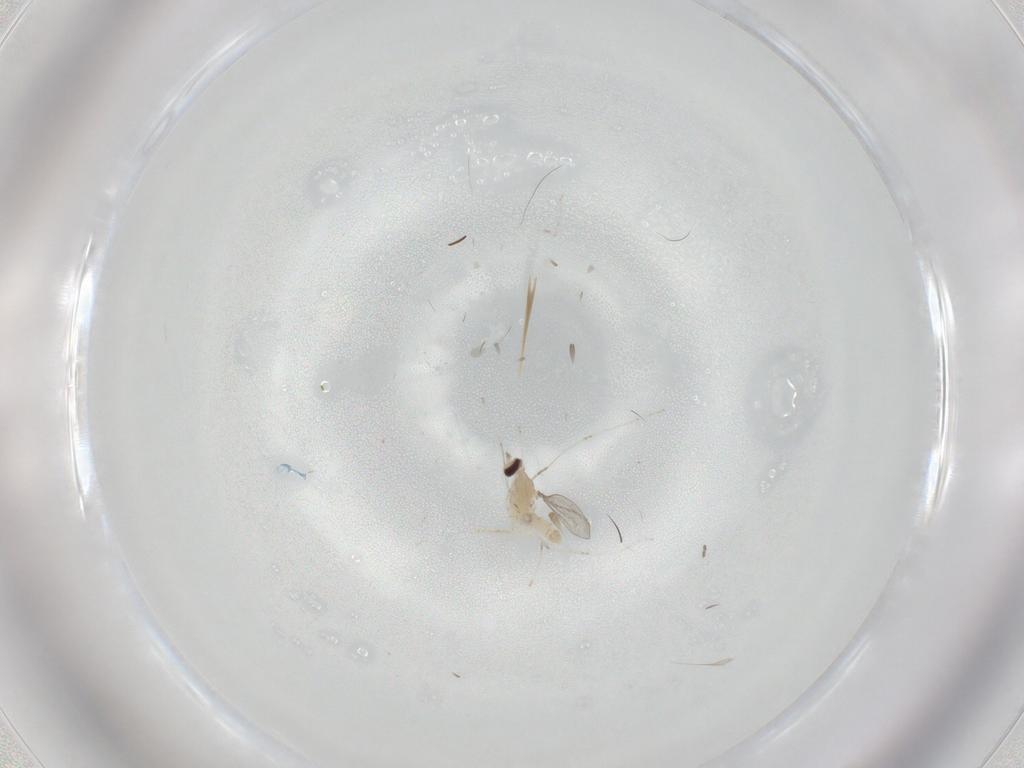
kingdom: Animalia
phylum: Arthropoda
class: Insecta
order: Diptera
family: Cecidomyiidae
